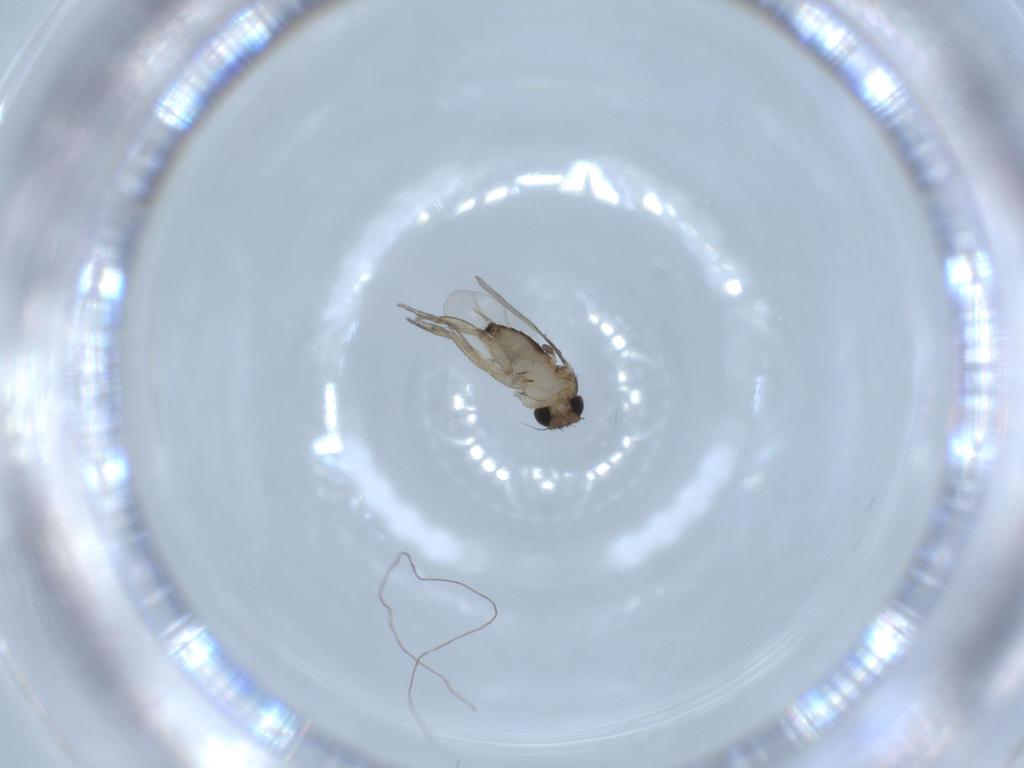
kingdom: Animalia
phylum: Arthropoda
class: Insecta
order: Diptera
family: Phoridae
